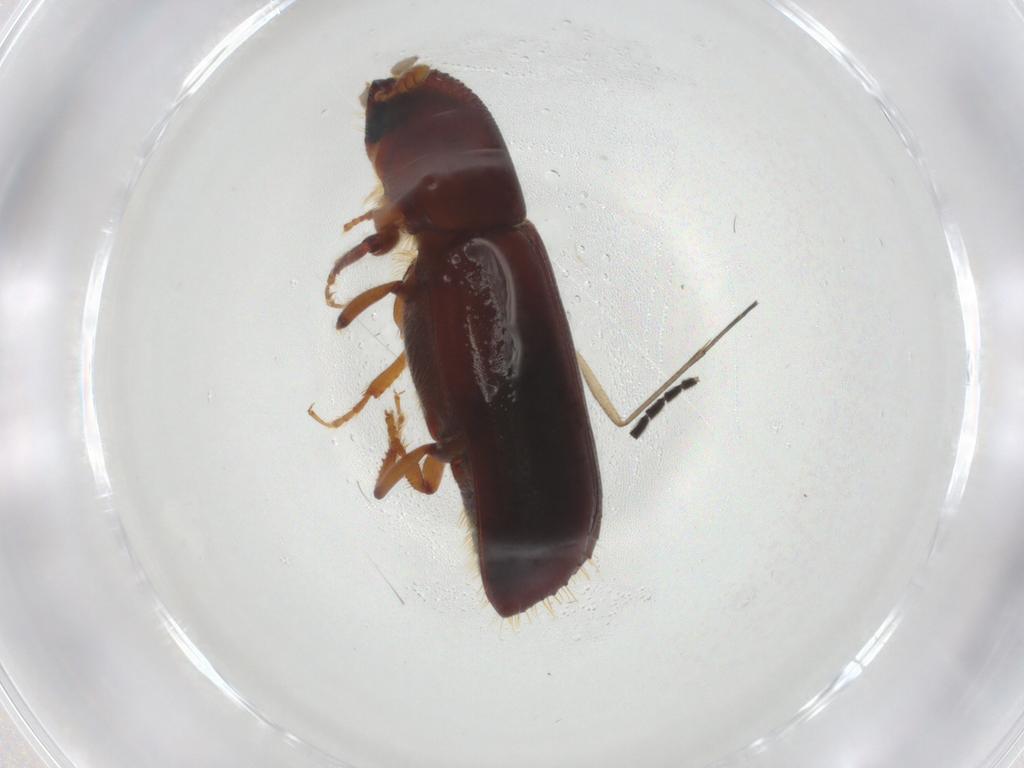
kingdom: Animalia
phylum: Arthropoda
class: Insecta
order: Coleoptera
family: Curculionidae
